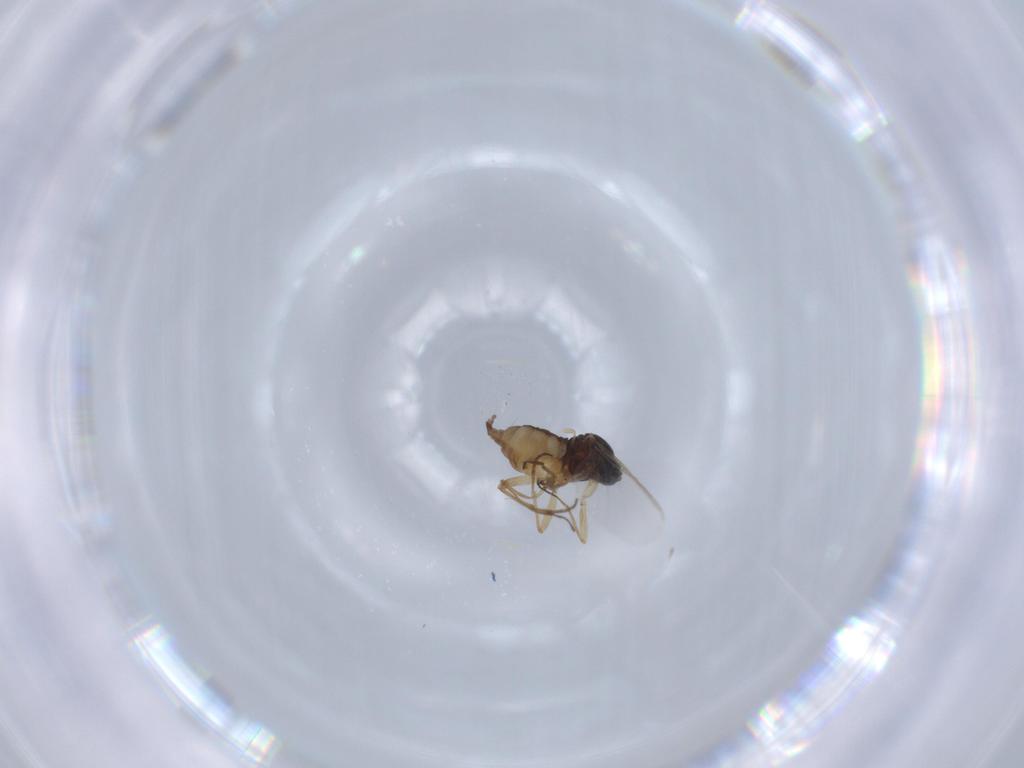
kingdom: Animalia
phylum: Arthropoda
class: Insecta
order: Diptera
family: Sciaridae
